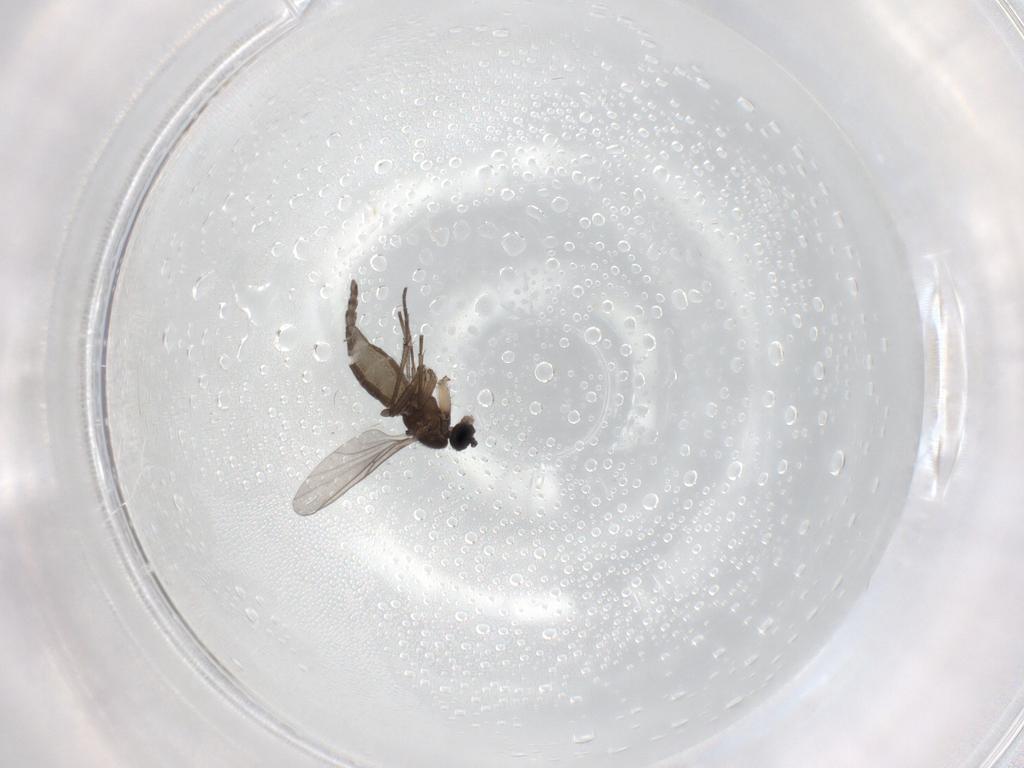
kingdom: Animalia
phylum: Arthropoda
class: Insecta
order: Diptera
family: Sciaridae
